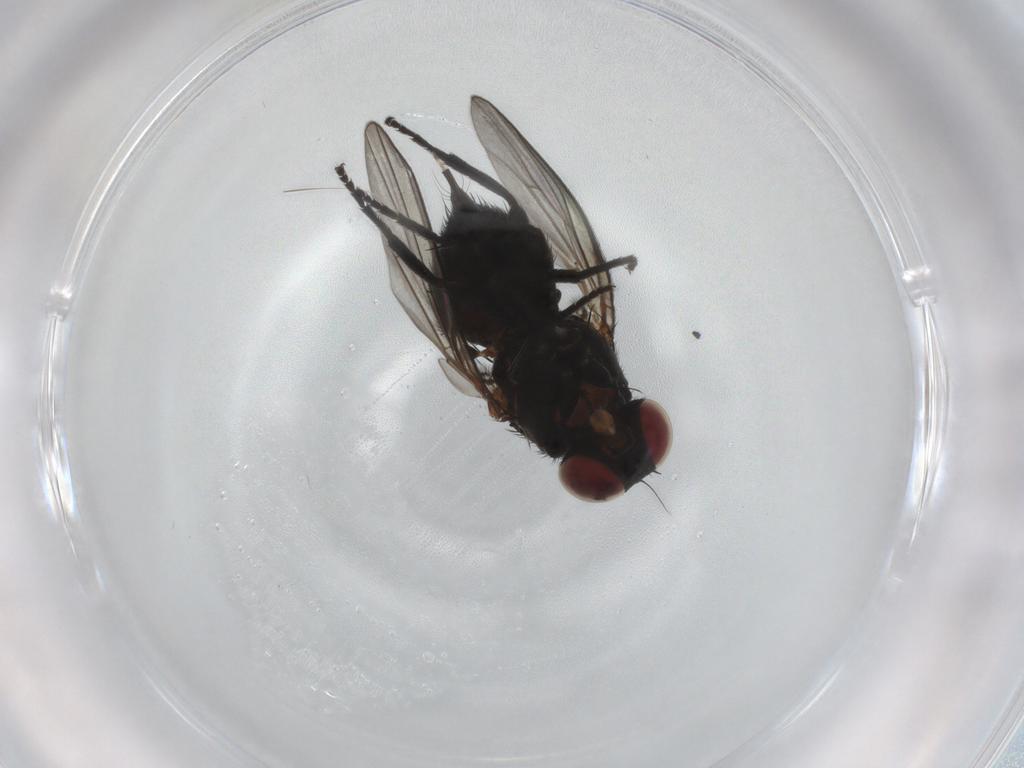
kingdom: Animalia
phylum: Arthropoda
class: Insecta
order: Diptera
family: Agromyzidae
